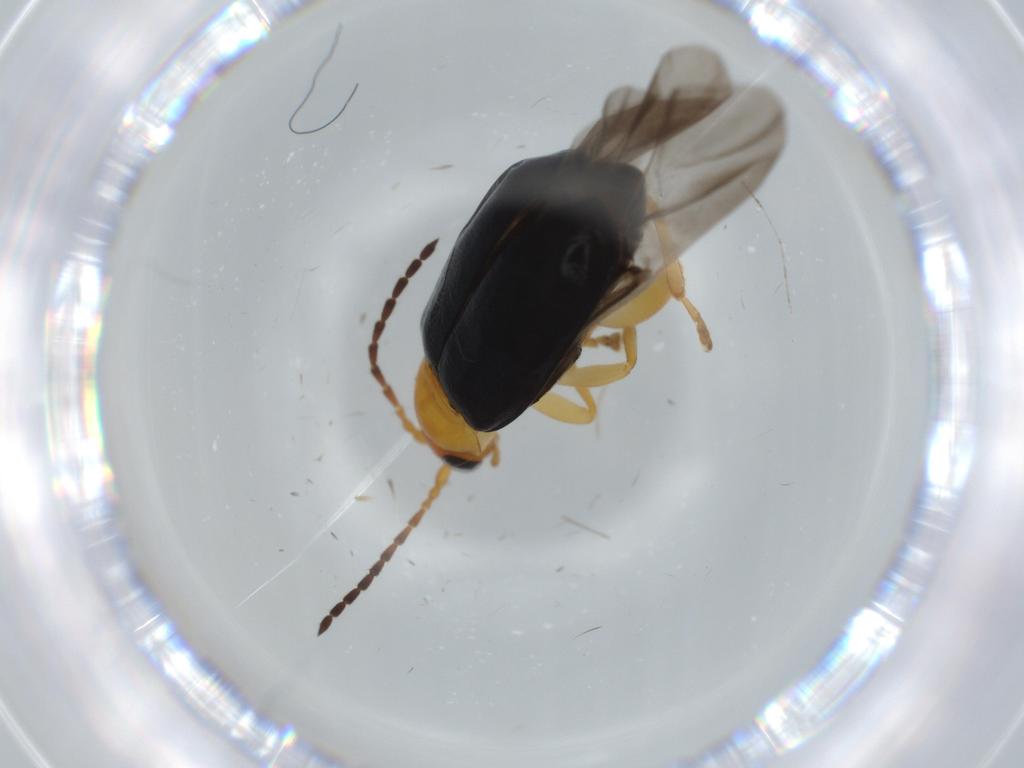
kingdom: Animalia
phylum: Arthropoda
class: Insecta
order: Coleoptera
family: Chrysomelidae
